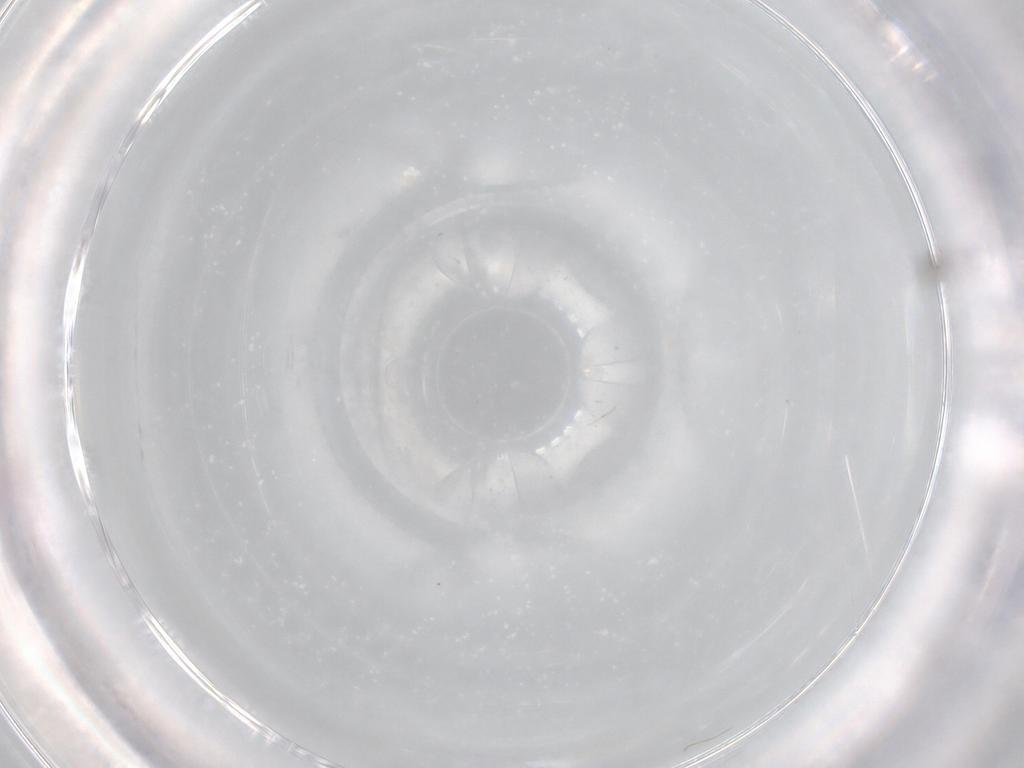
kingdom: Animalia
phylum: Arthropoda
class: Insecta
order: Hymenoptera
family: Mymaridae
